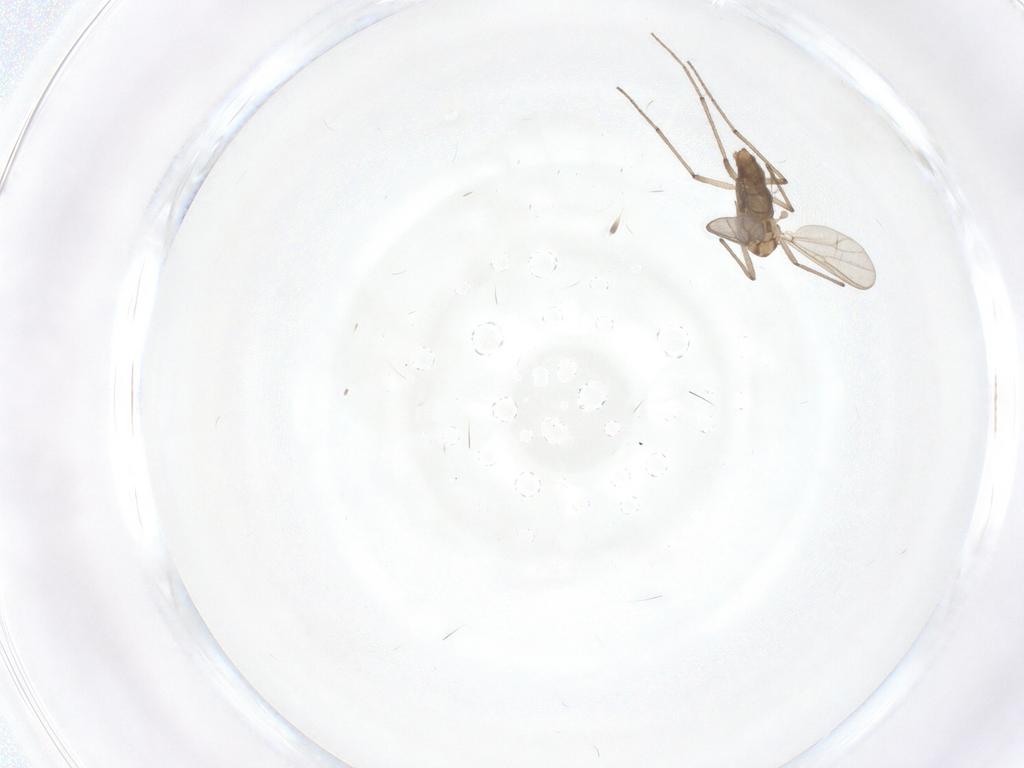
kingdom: Animalia
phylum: Arthropoda
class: Insecta
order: Diptera
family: Chironomidae
